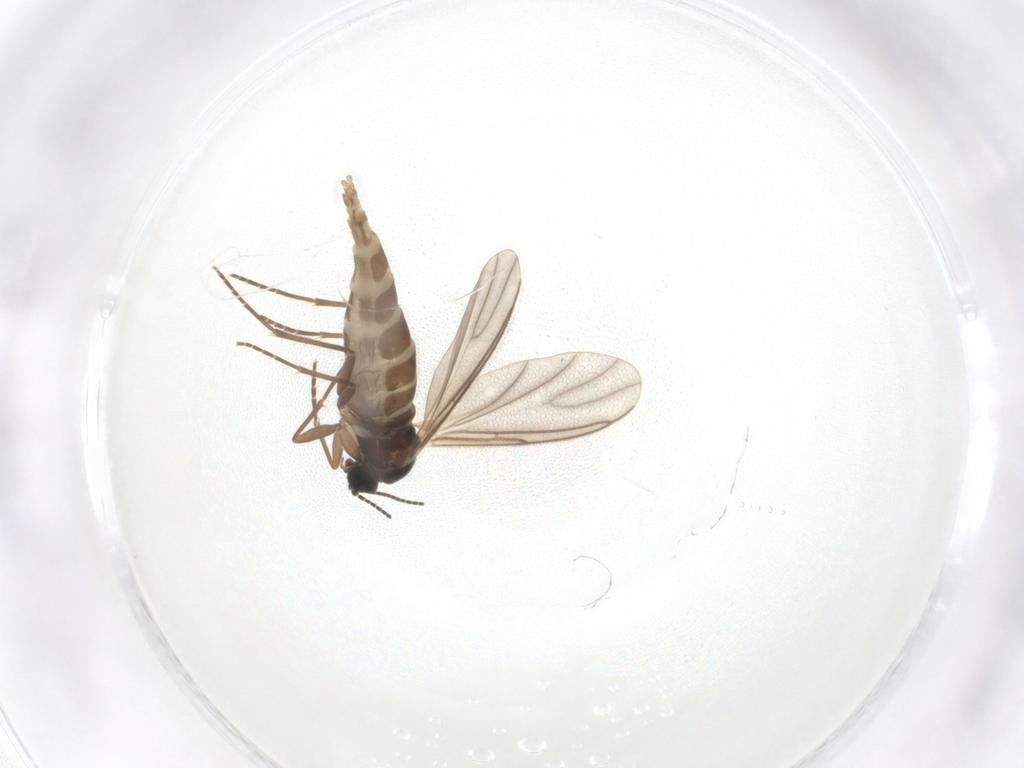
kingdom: Animalia
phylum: Arthropoda
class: Insecta
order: Diptera
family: Sciaridae
